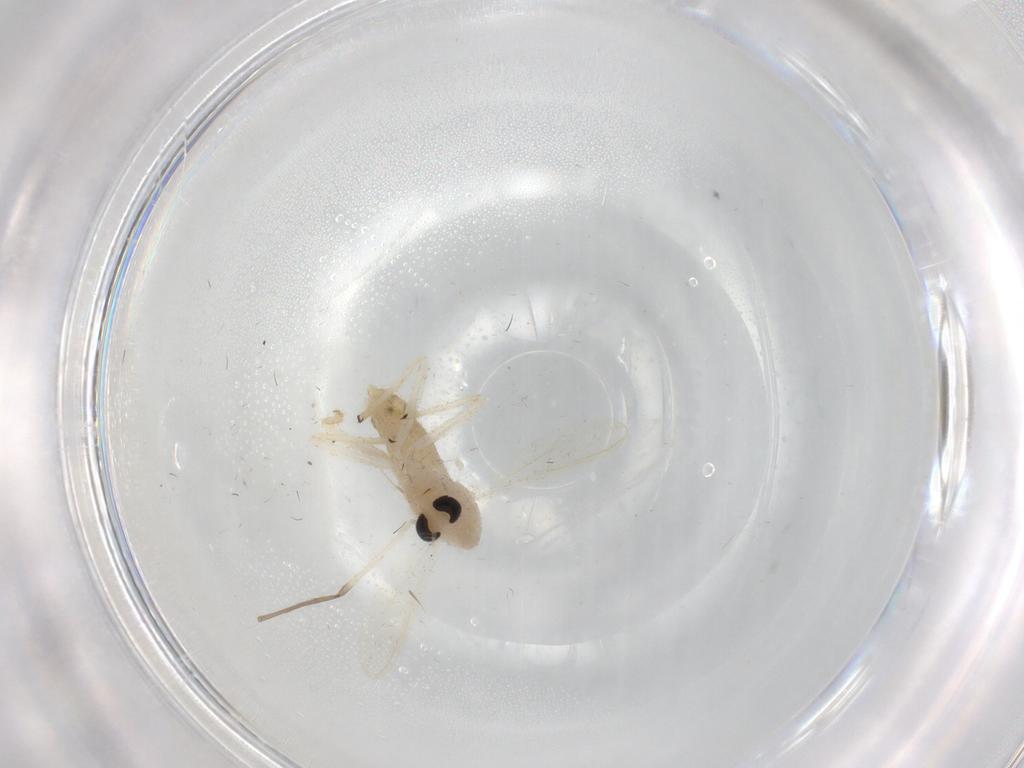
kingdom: Animalia
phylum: Arthropoda
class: Insecta
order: Diptera
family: Chironomidae
